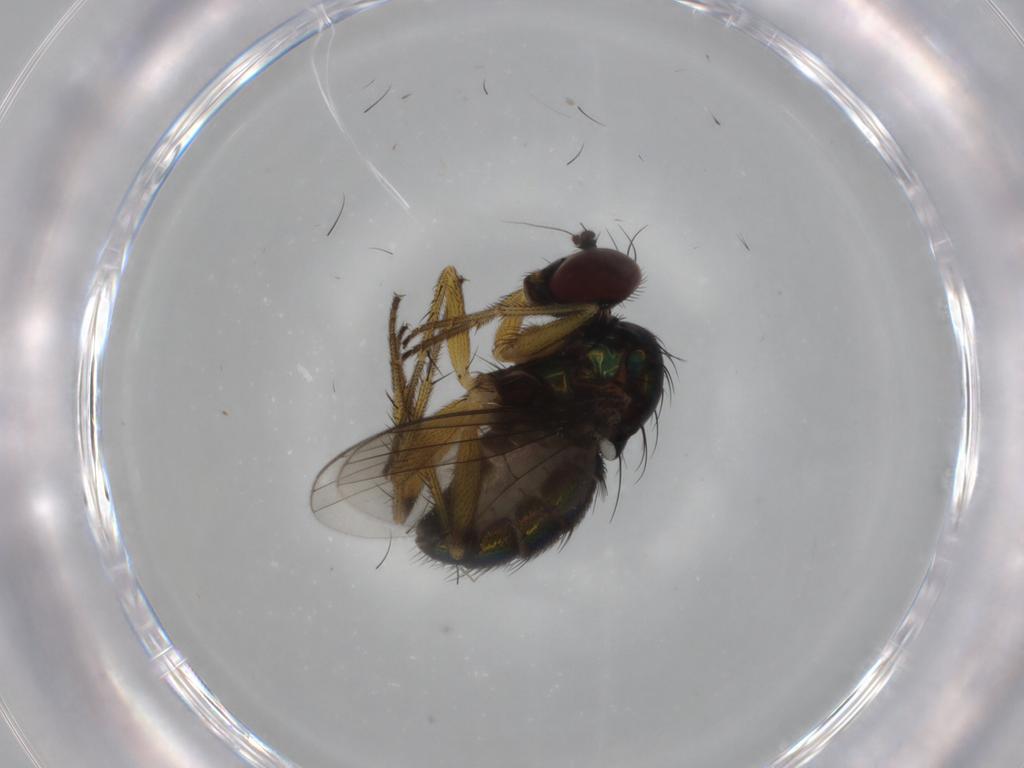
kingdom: Animalia
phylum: Arthropoda
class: Insecta
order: Diptera
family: Dolichopodidae
